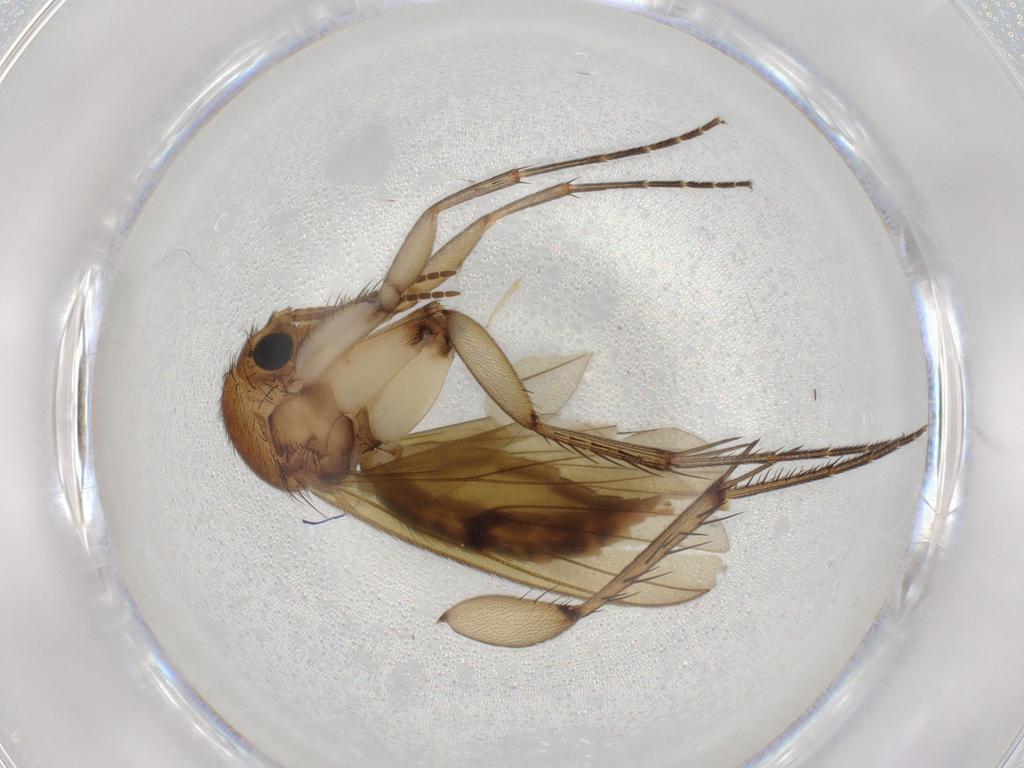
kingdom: Animalia
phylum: Arthropoda
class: Insecta
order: Diptera
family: Mycetophilidae
